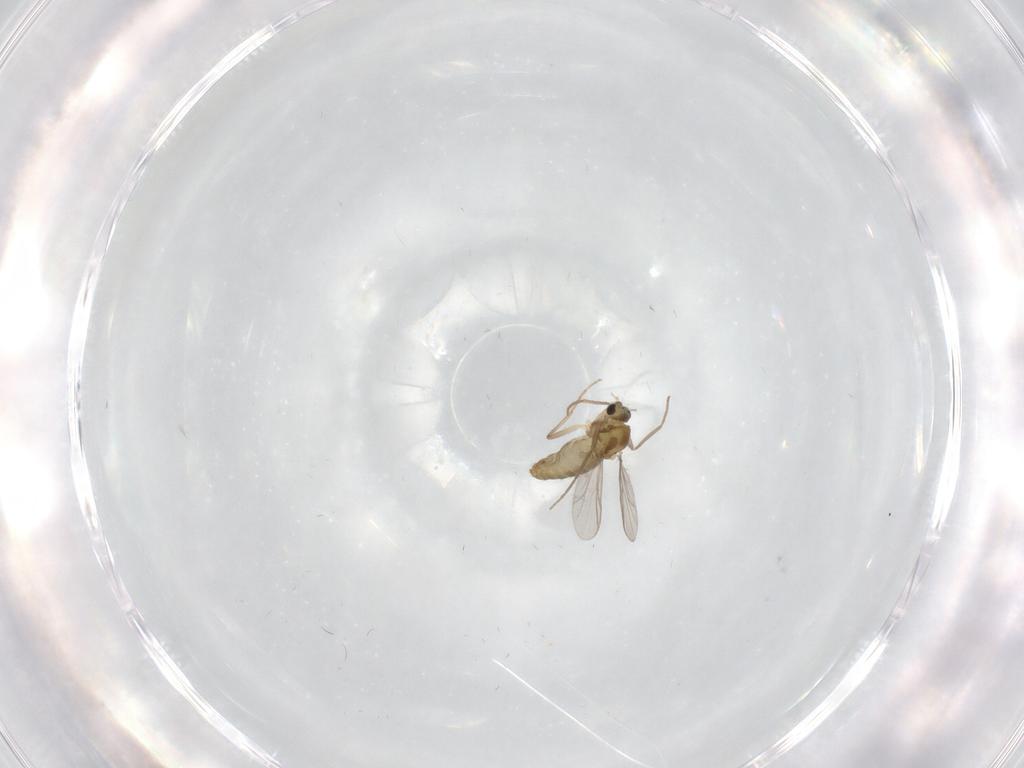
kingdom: Animalia
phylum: Arthropoda
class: Insecta
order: Diptera
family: Chironomidae
